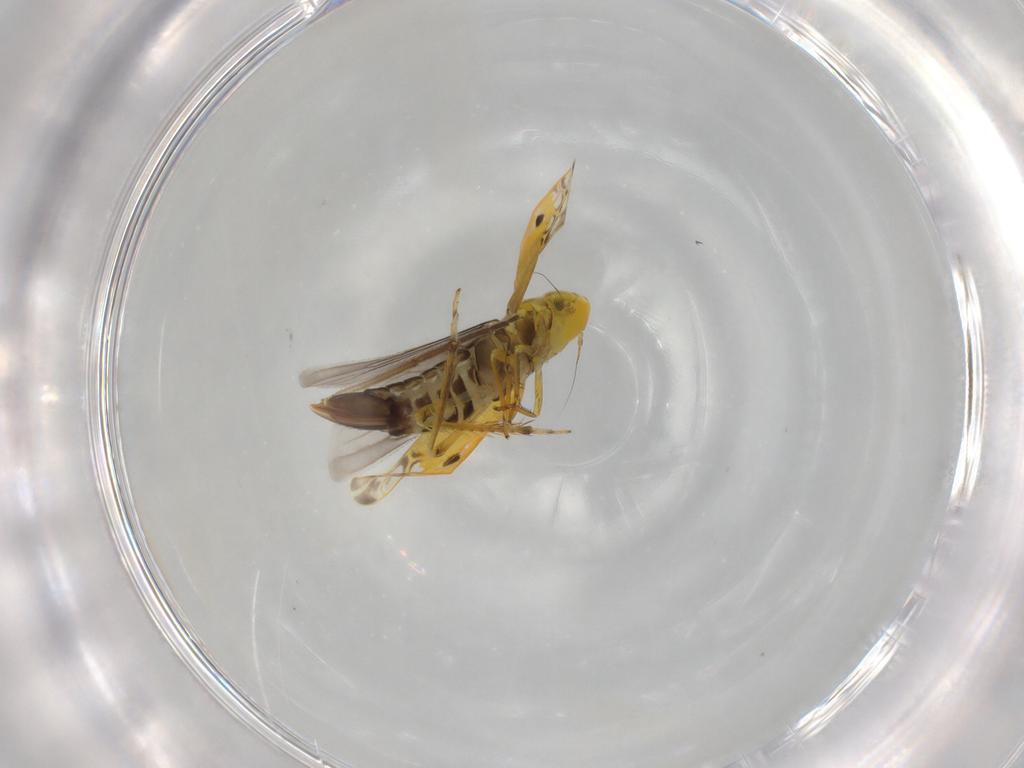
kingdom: Animalia
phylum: Arthropoda
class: Insecta
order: Hemiptera
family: Cicadellidae
